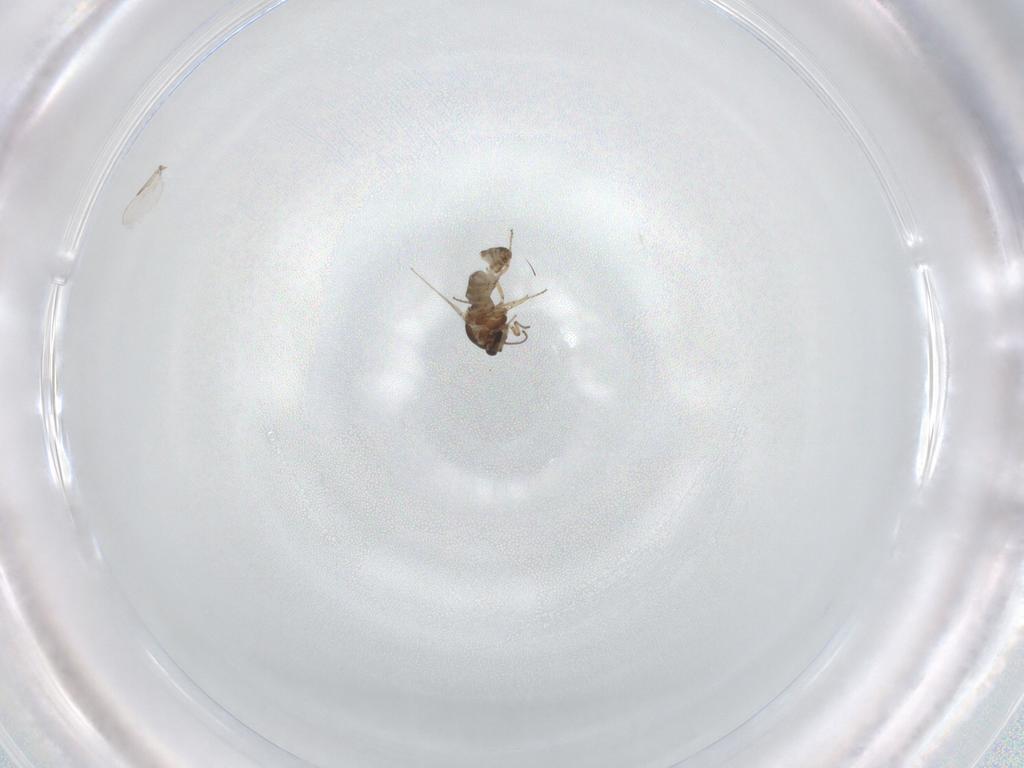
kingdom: Animalia
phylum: Arthropoda
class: Insecta
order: Diptera
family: Ceratopogonidae
